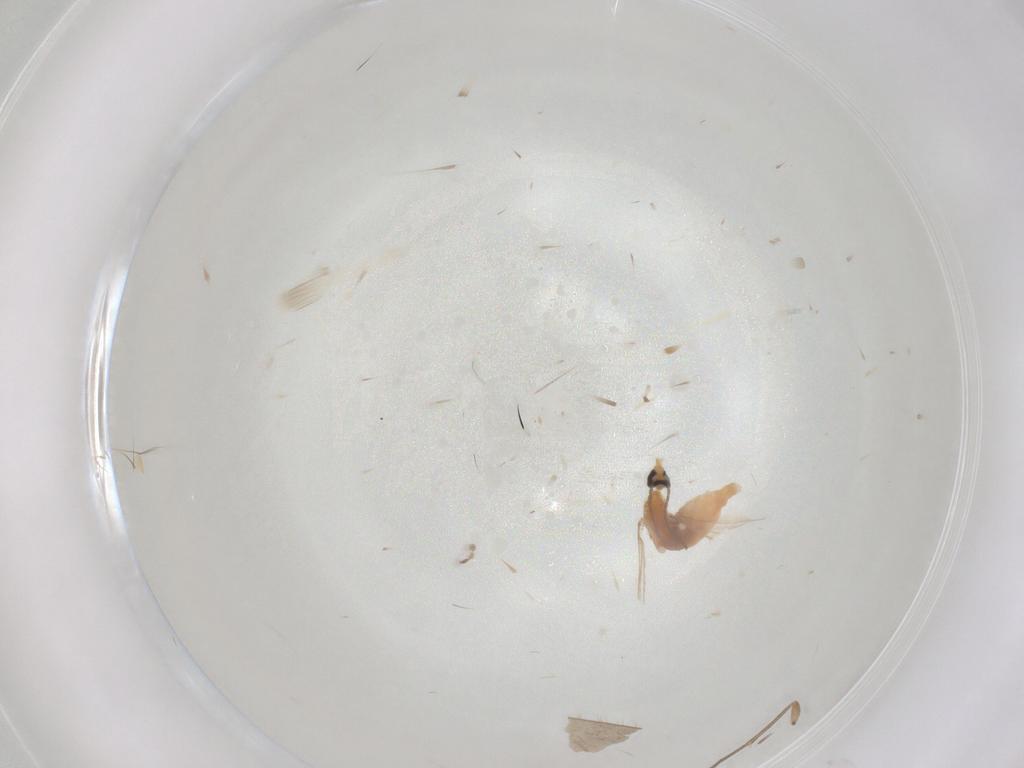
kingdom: Animalia
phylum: Arthropoda
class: Insecta
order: Diptera
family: Cecidomyiidae
